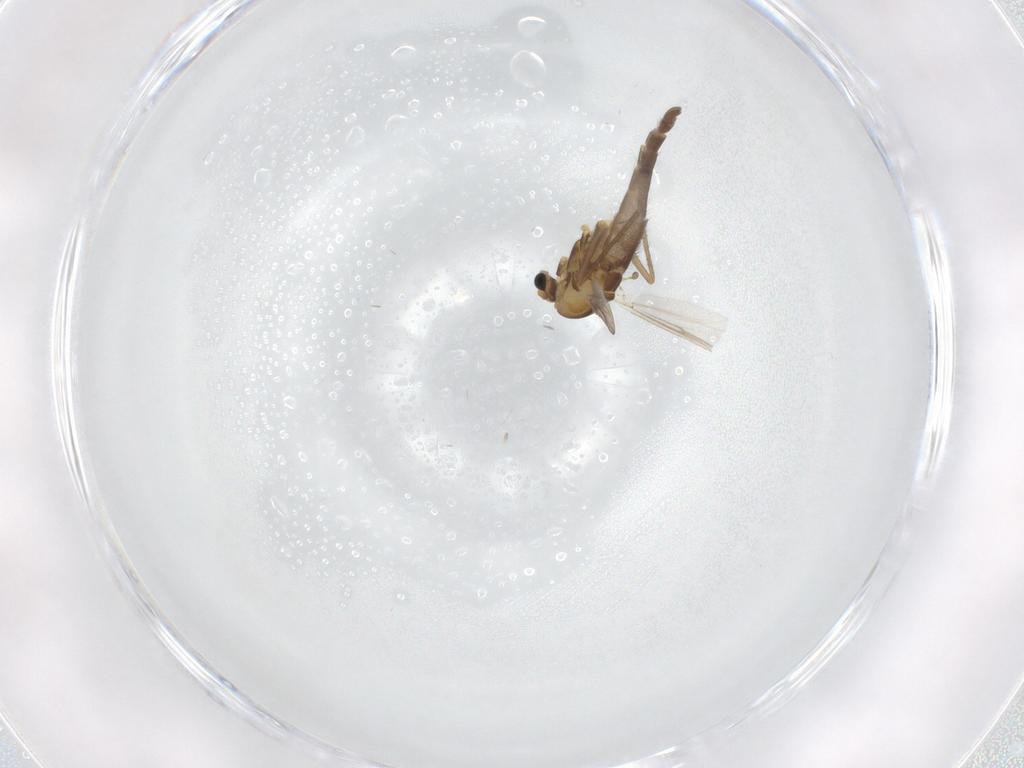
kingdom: Animalia
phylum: Arthropoda
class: Insecta
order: Diptera
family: Chironomidae
